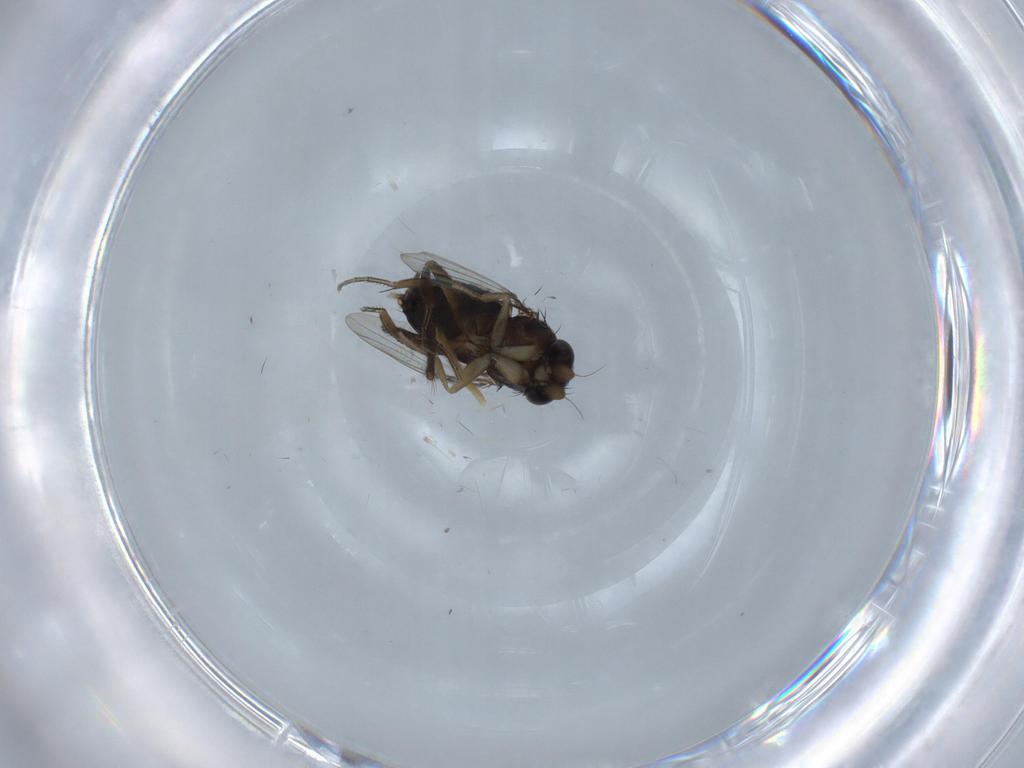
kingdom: Animalia
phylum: Arthropoda
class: Insecta
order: Diptera
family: Phoridae
